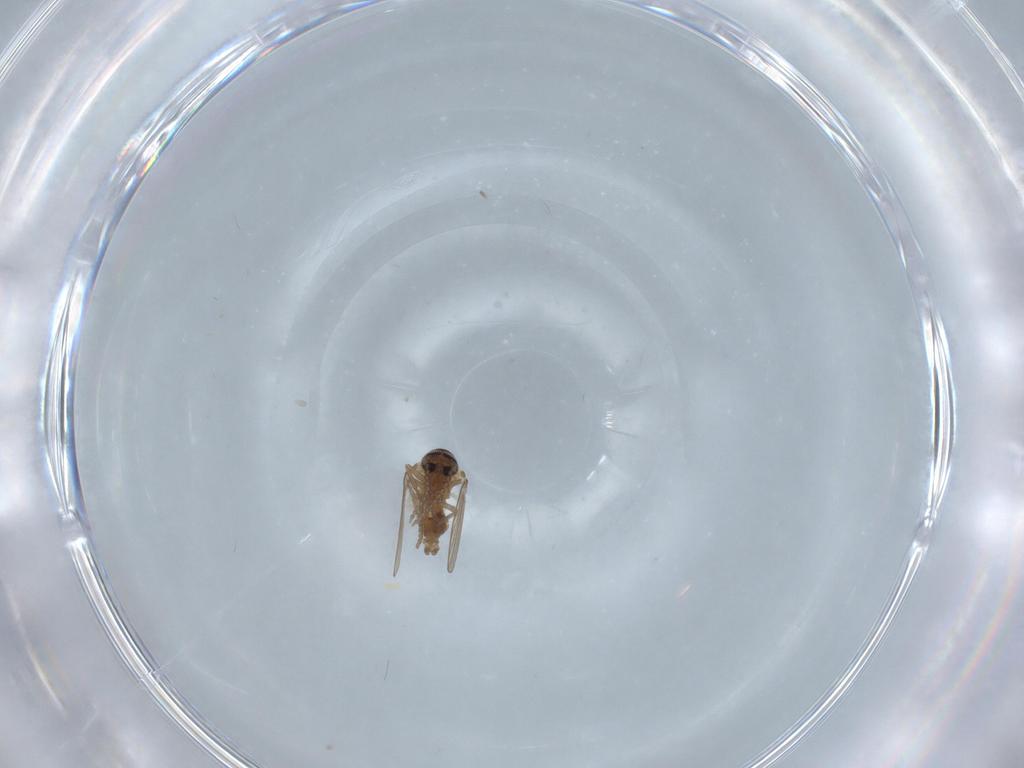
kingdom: Animalia
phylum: Arthropoda
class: Insecta
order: Diptera
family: Psychodidae
